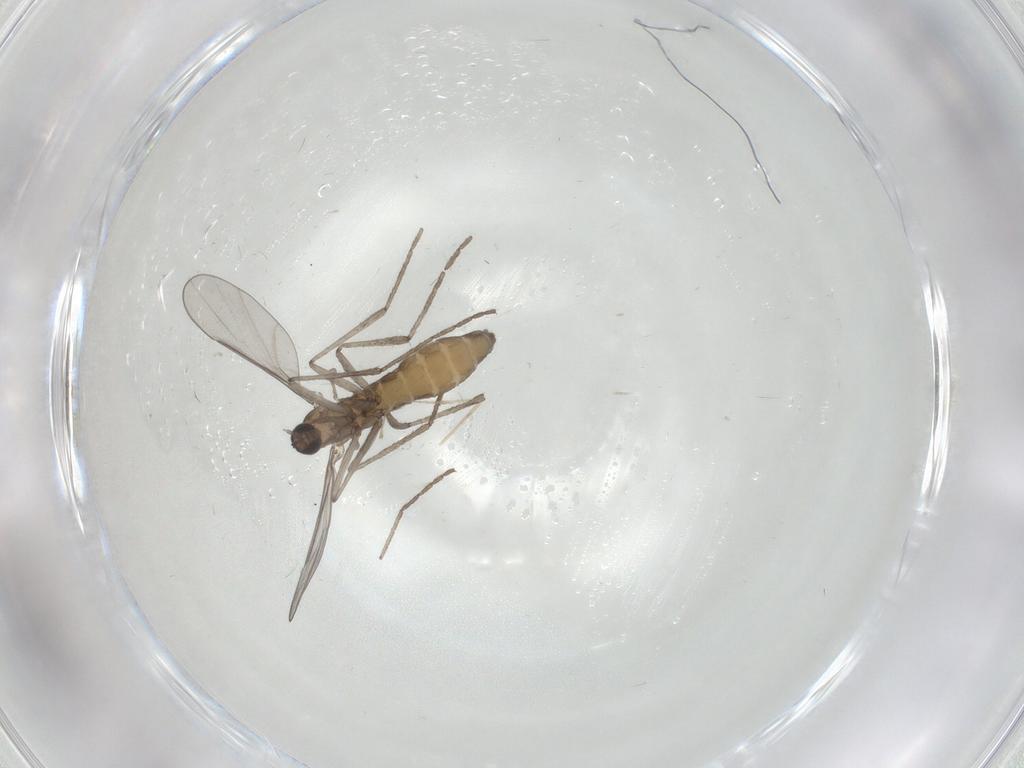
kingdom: Animalia
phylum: Arthropoda
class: Insecta
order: Diptera
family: Cecidomyiidae
